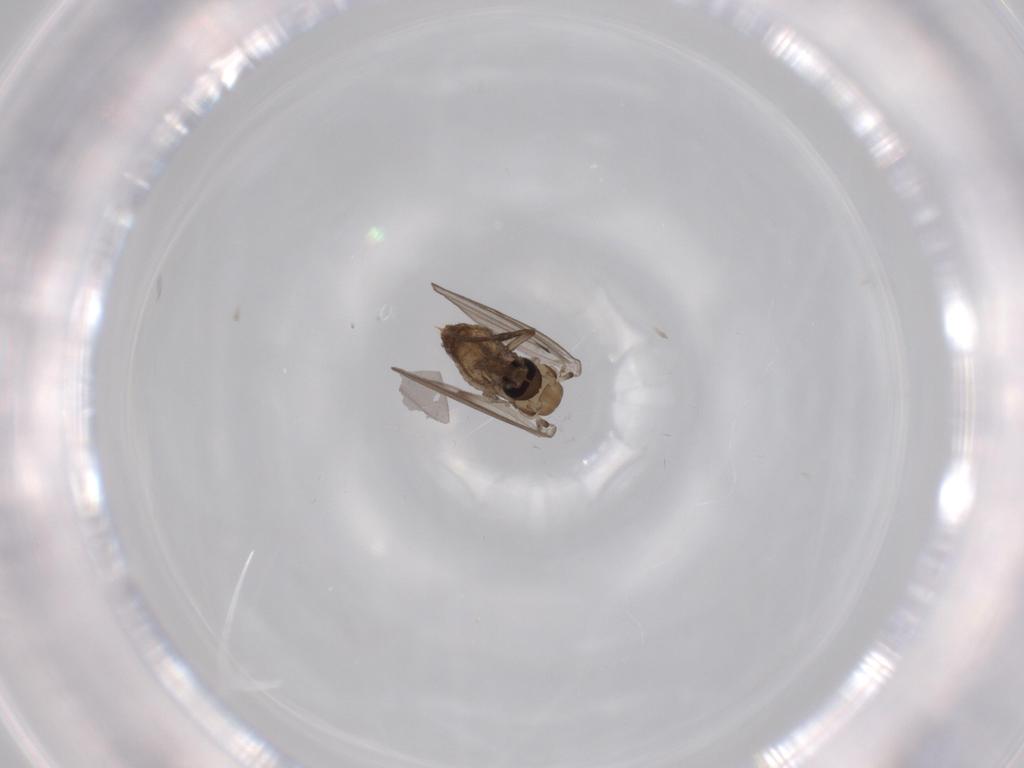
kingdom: Animalia
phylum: Arthropoda
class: Insecta
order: Diptera
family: Psychodidae
